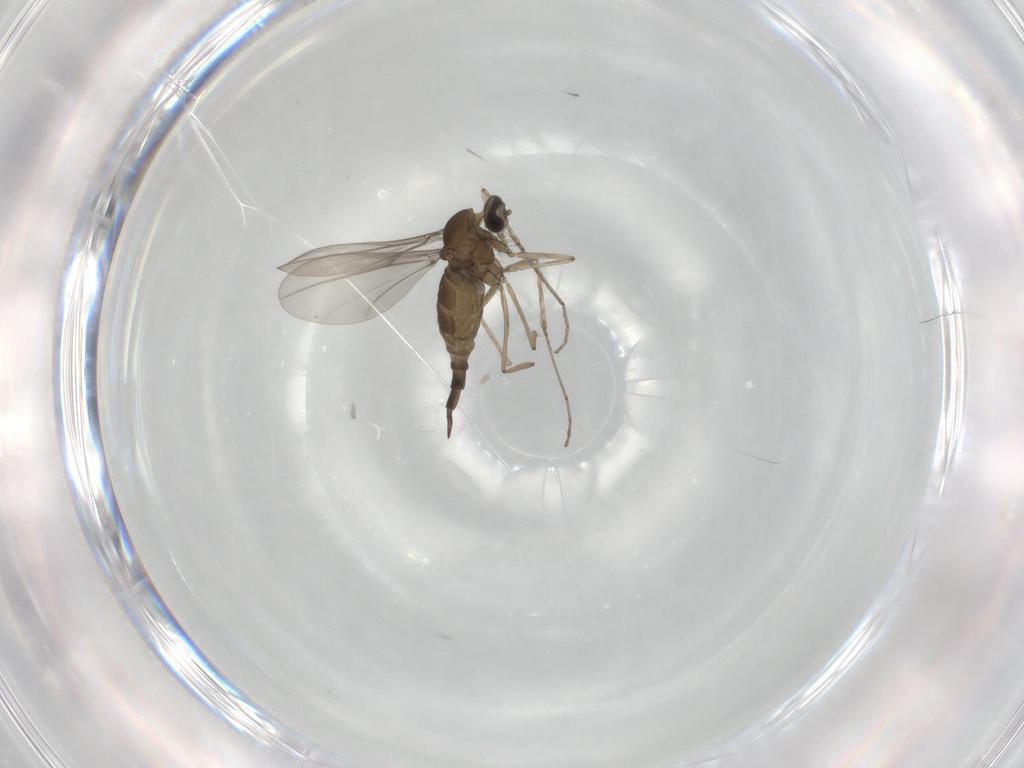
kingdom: Animalia
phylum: Arthropoda
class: Insecta
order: Diptera
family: Cecidomyiidae
